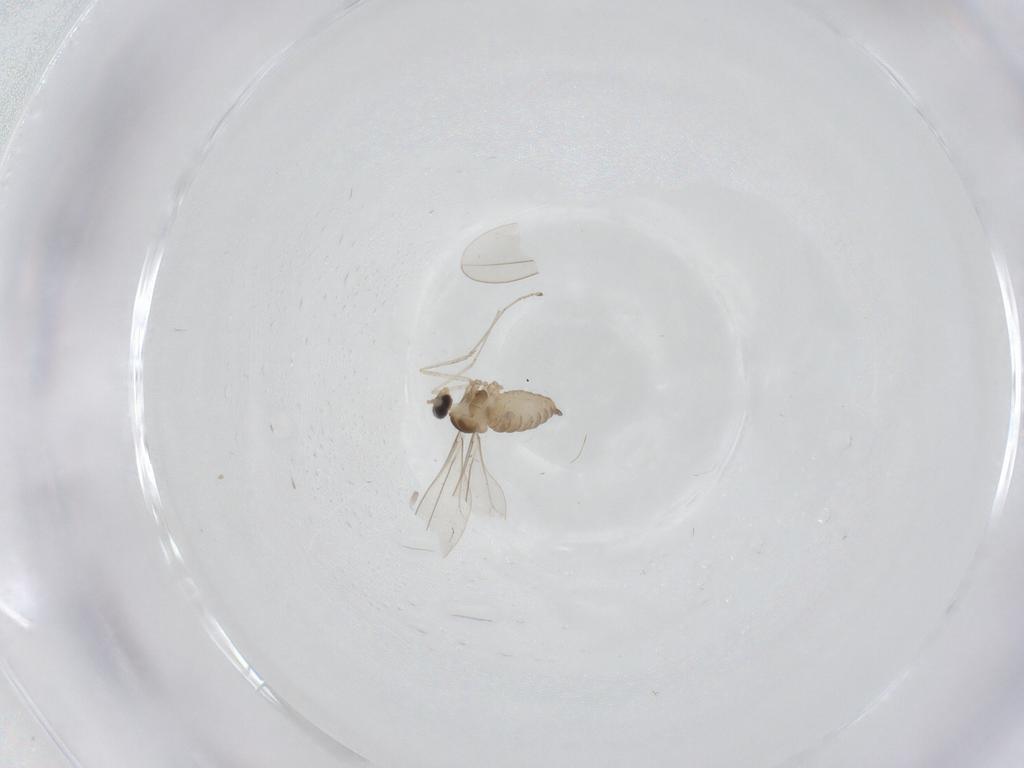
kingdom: Animalia
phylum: Arthropoda
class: Insecta
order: Diptera
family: Cecidomyiidae
